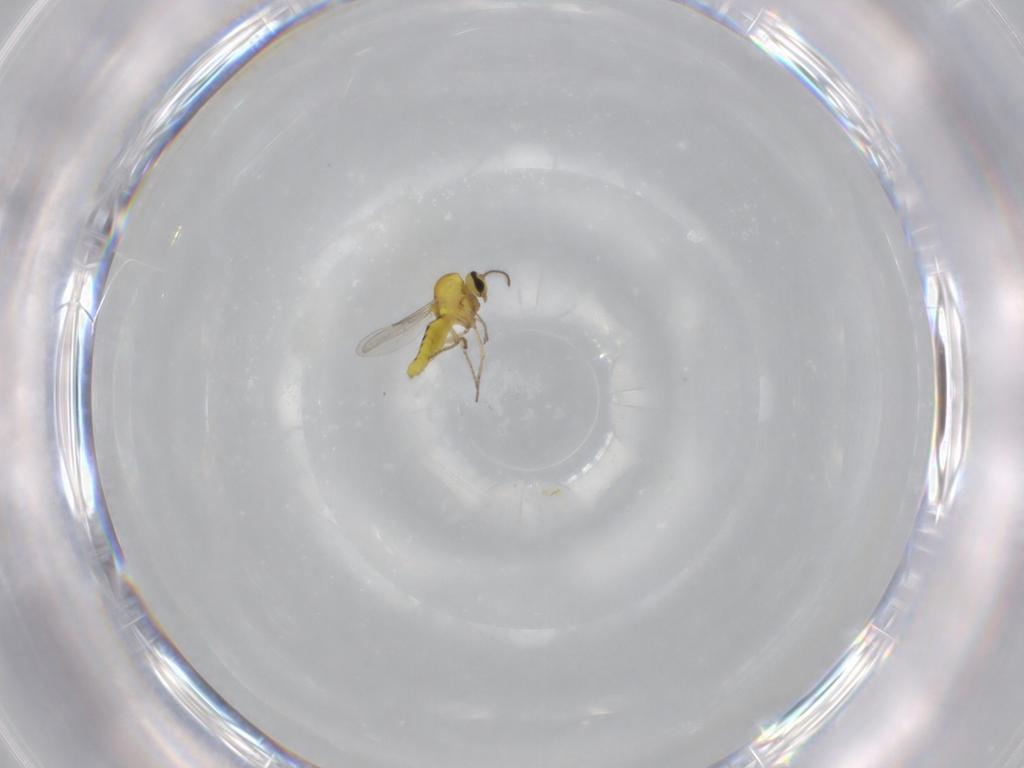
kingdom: Animalia
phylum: Arthropoda
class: Insecta
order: Diptera
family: Ceratopogonidae
